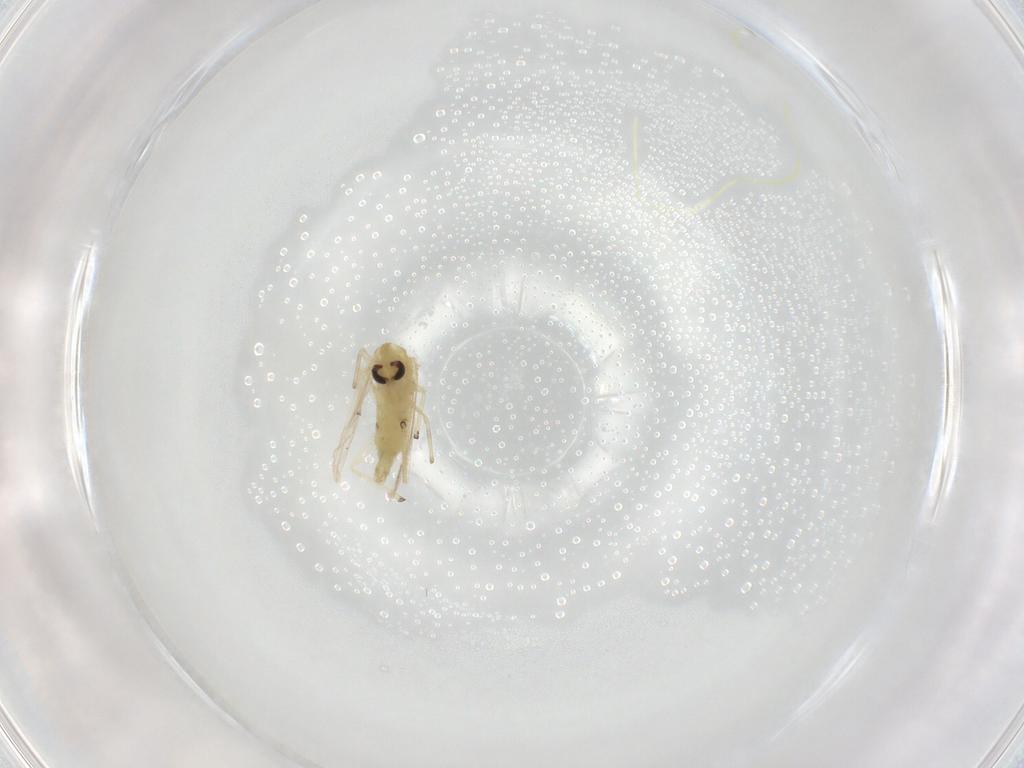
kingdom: Animalia
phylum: Arthropoda
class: Insecta
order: Diptera
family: Chironomidae
